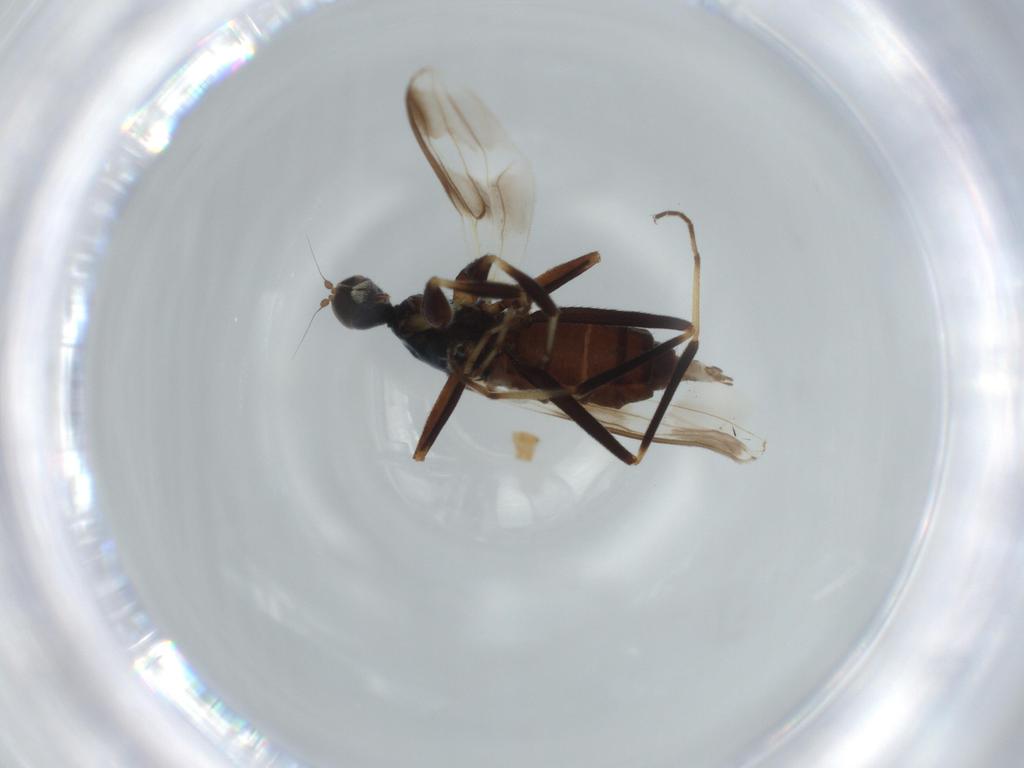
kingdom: Animalia
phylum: Arthropoda
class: Insecta
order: Diptera
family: Hybotidae
